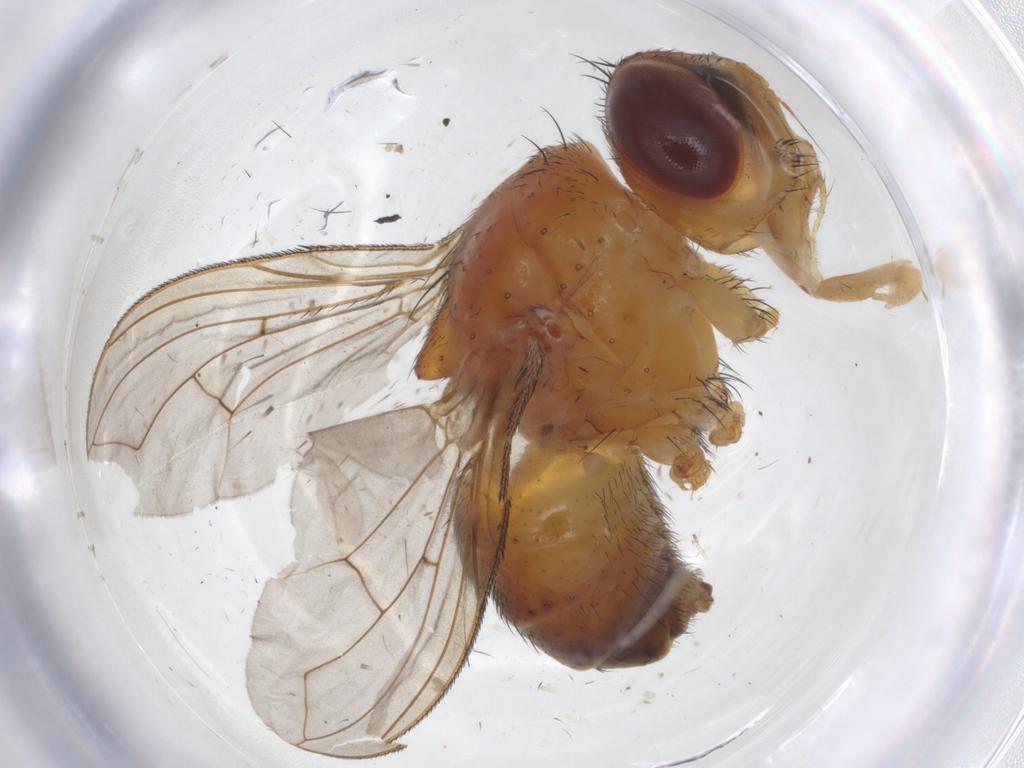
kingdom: Animalia
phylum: Arthropoda
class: Insecta
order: Diptera
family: Tachinidae
